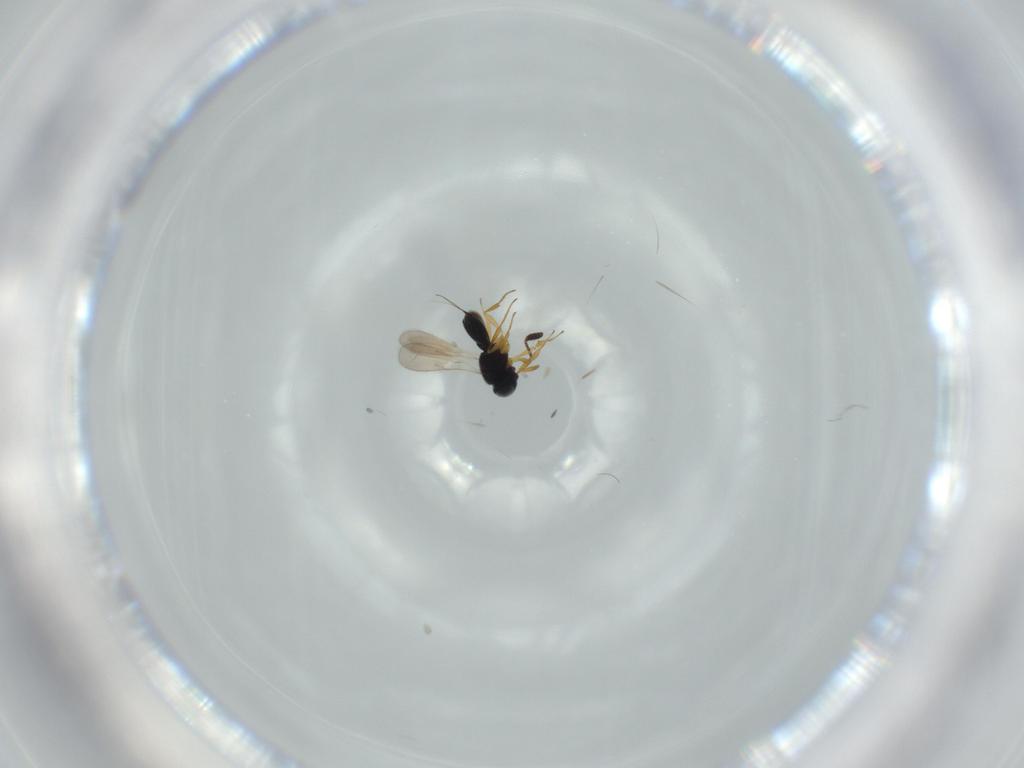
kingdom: Animalia
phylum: Arthropoda
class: Insecta
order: Hymenoptera
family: Scelionidae
